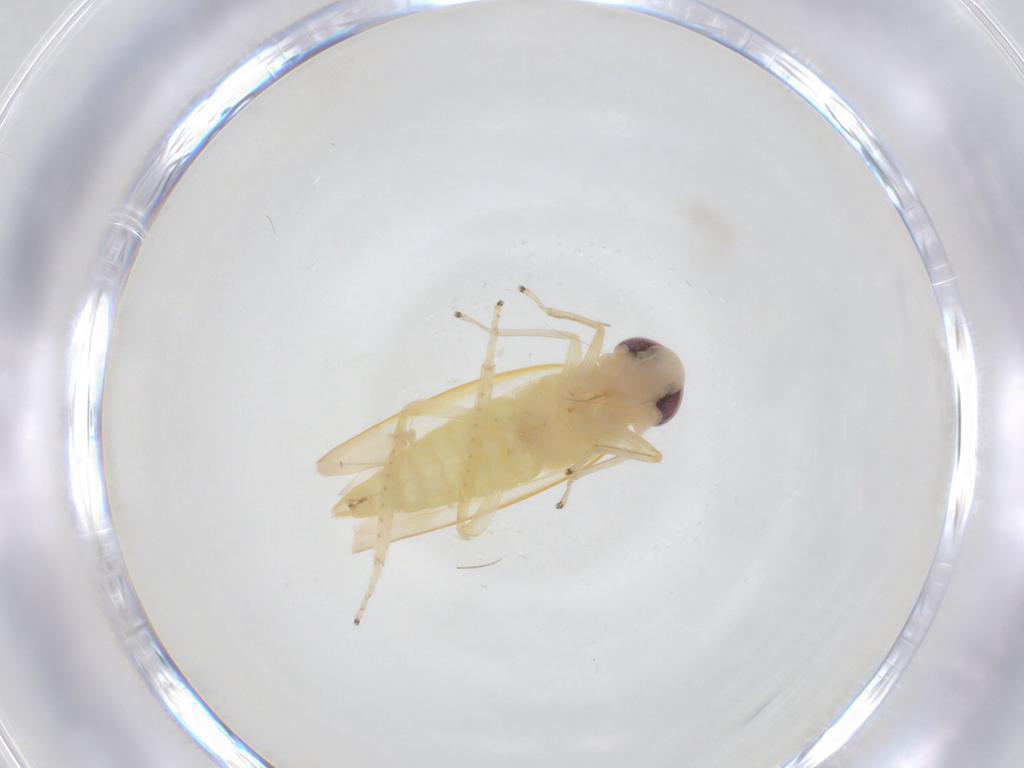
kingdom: Animalia
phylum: Arthropoda
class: Insecta
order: Hemiptera
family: Cicadellidae
